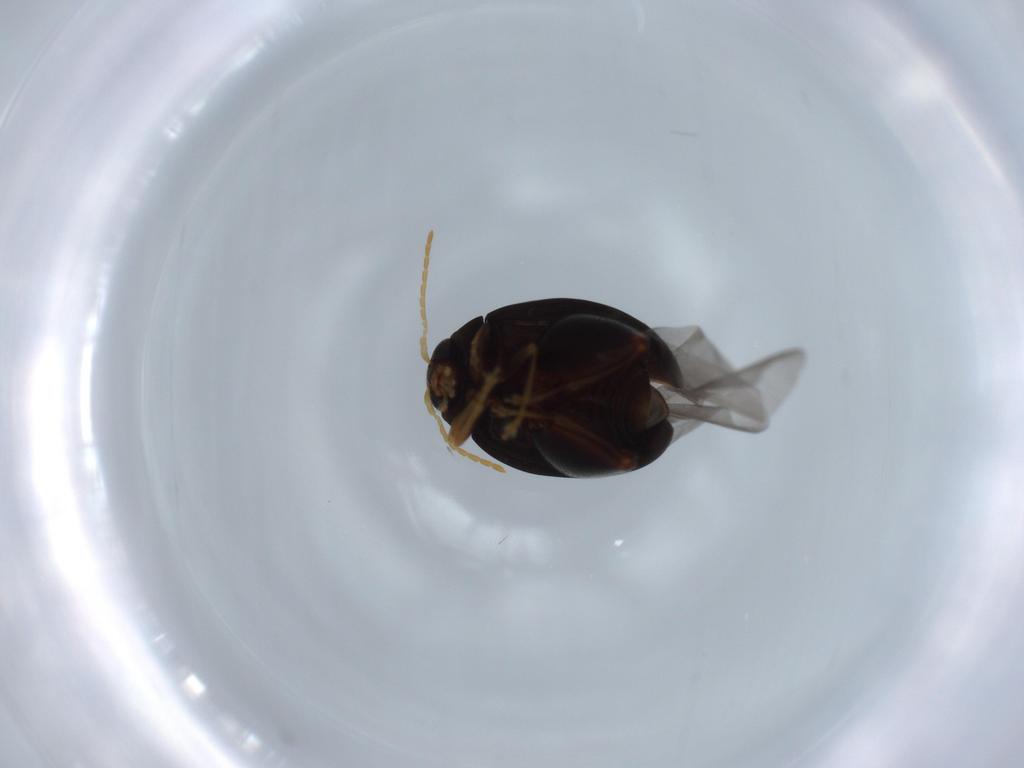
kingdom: Animalia
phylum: Arthropoda
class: Insecta
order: Coleoptera
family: Chrysomelidae
